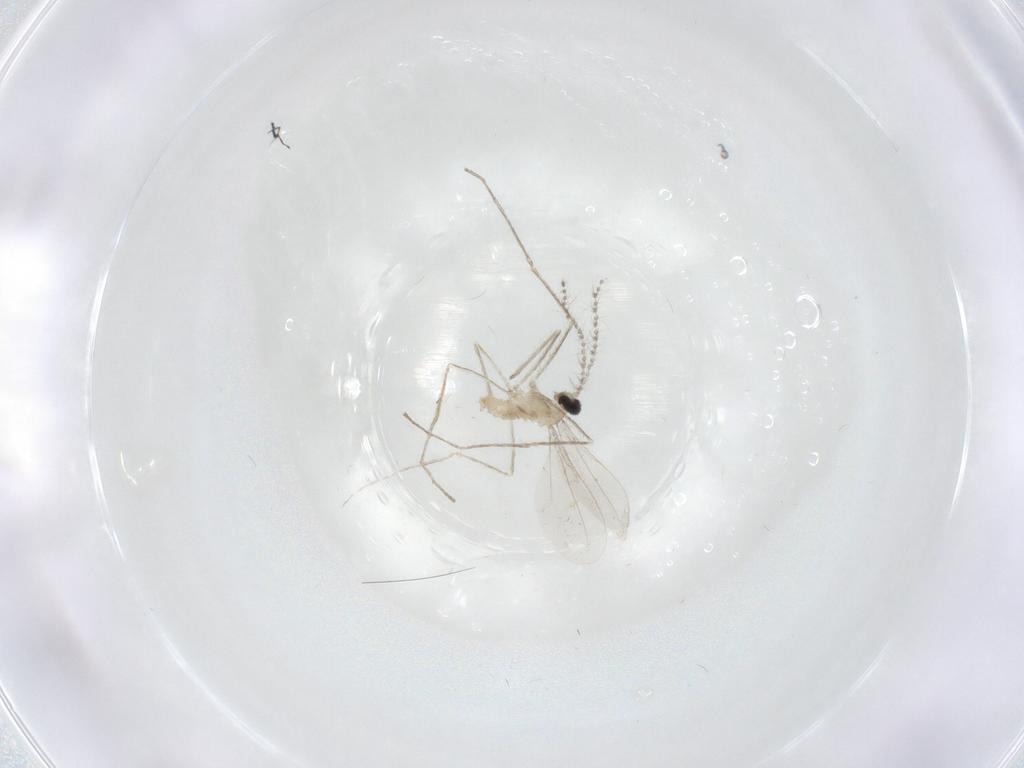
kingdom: Animalia
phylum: Arthropoda
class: Insecta
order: Diptera
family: Cecidomyiidae
